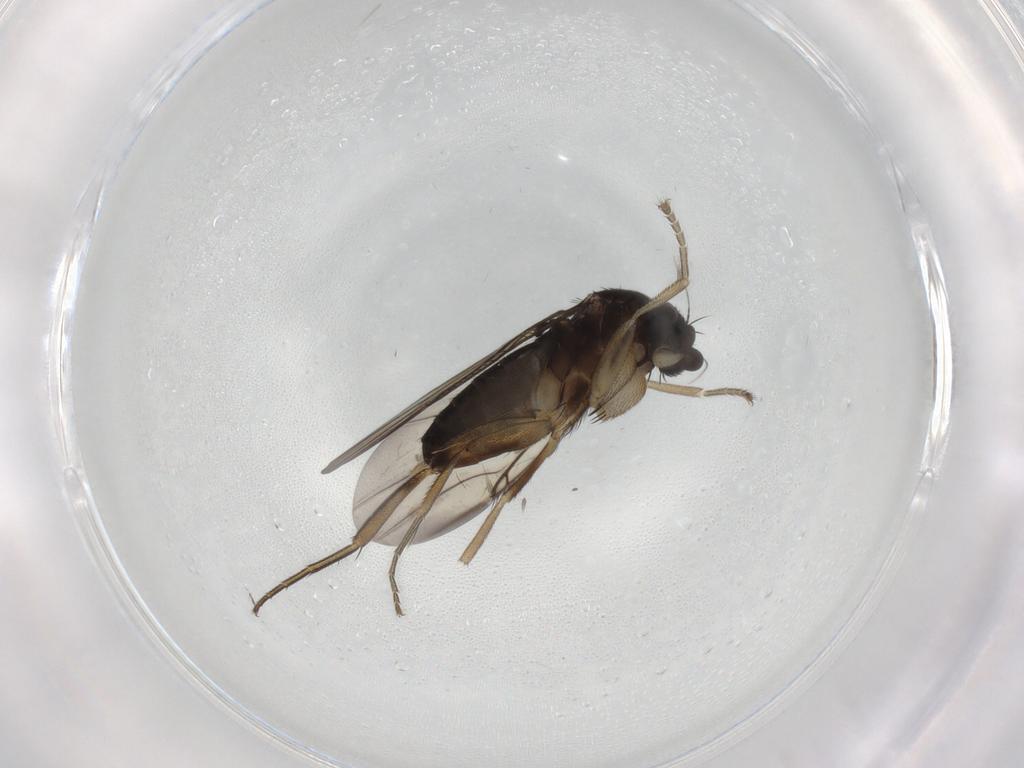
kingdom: Animalia
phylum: Arthropoda
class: Insecta
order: Diptera
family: Phoridae
